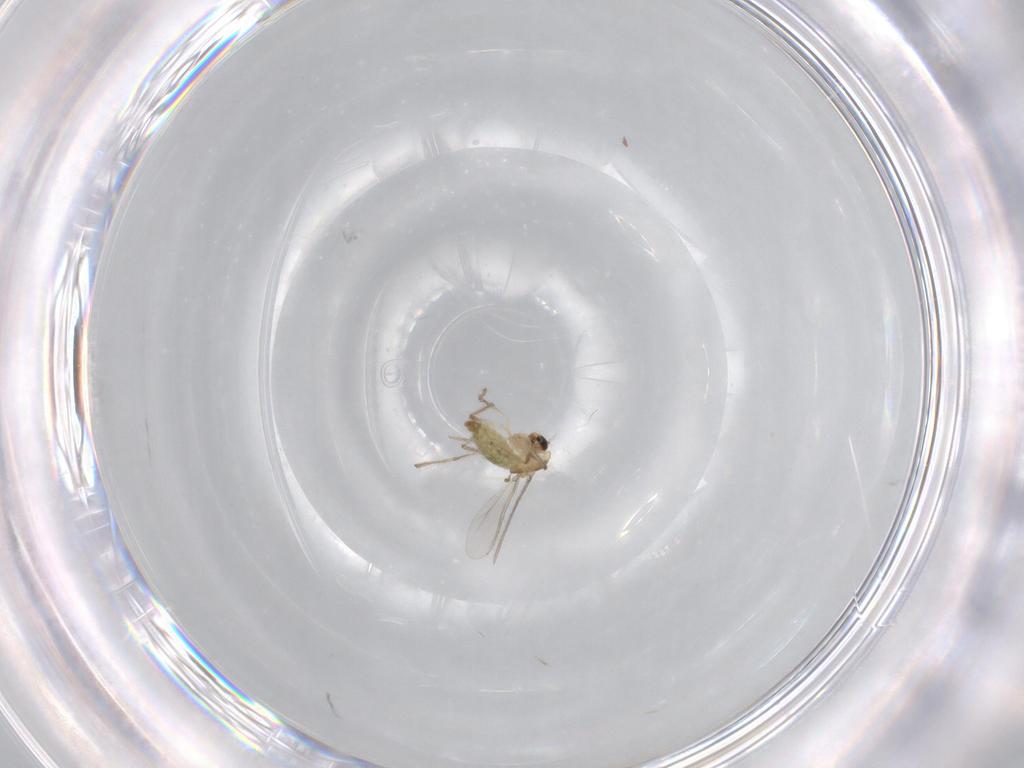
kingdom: Animalia
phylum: Arthropoda
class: Insecta
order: Diptera
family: Chironomidae
